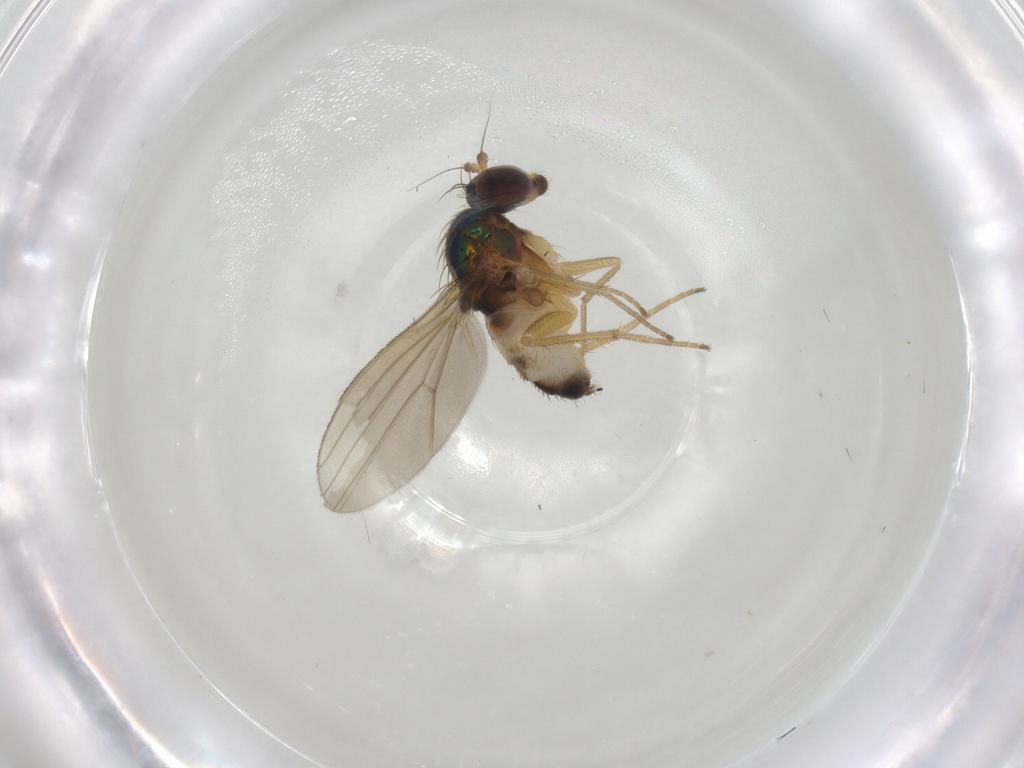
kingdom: Animalia
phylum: Arthropoda
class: Insecta
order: Diptera
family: Dolichopodidae
